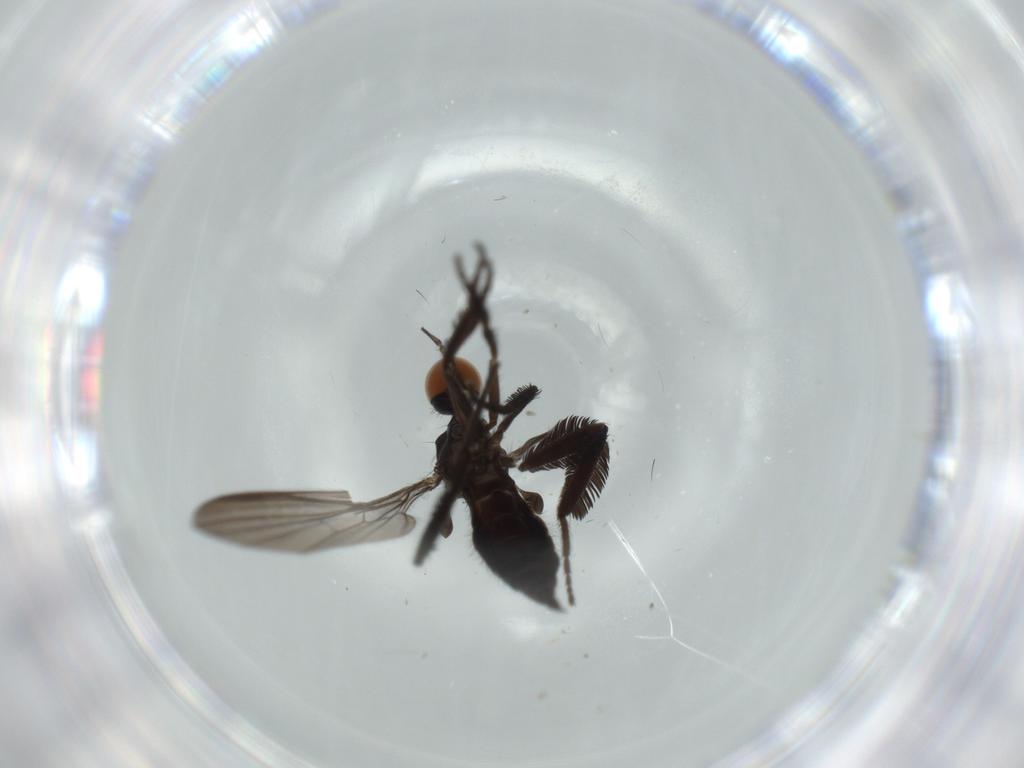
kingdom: Animalia
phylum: Arthropoda
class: Insecta
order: Diptera
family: Empididae
